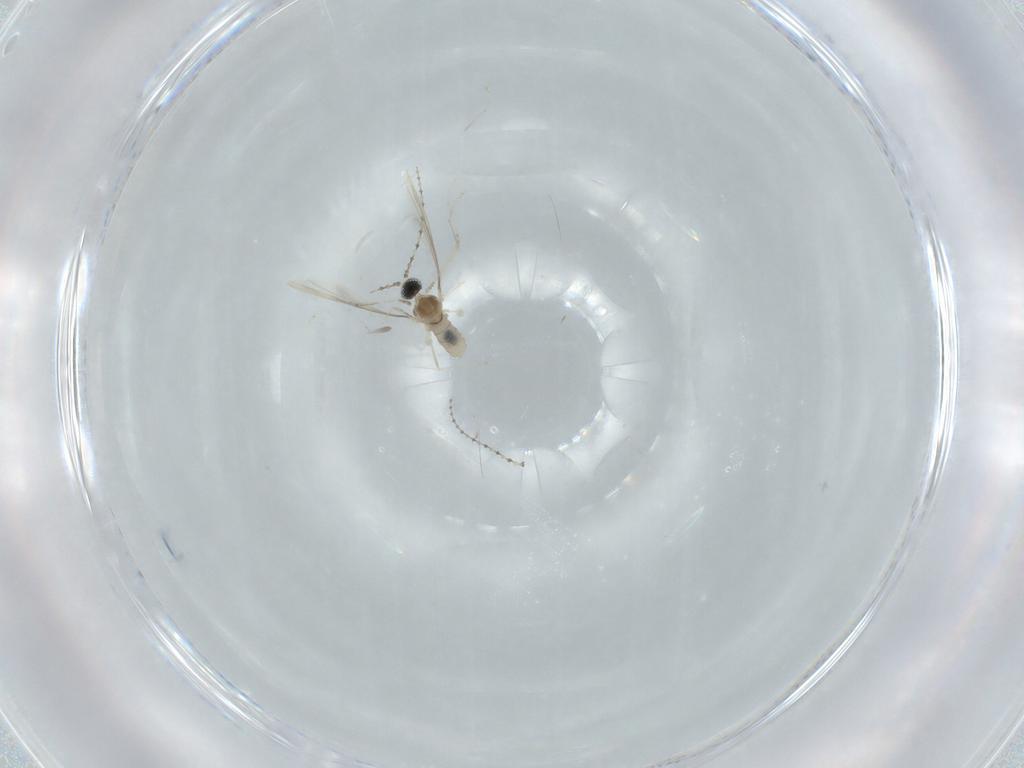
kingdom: Animalia
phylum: Arthropoda
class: Insecta
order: Diptera
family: Cecidomyiidae
